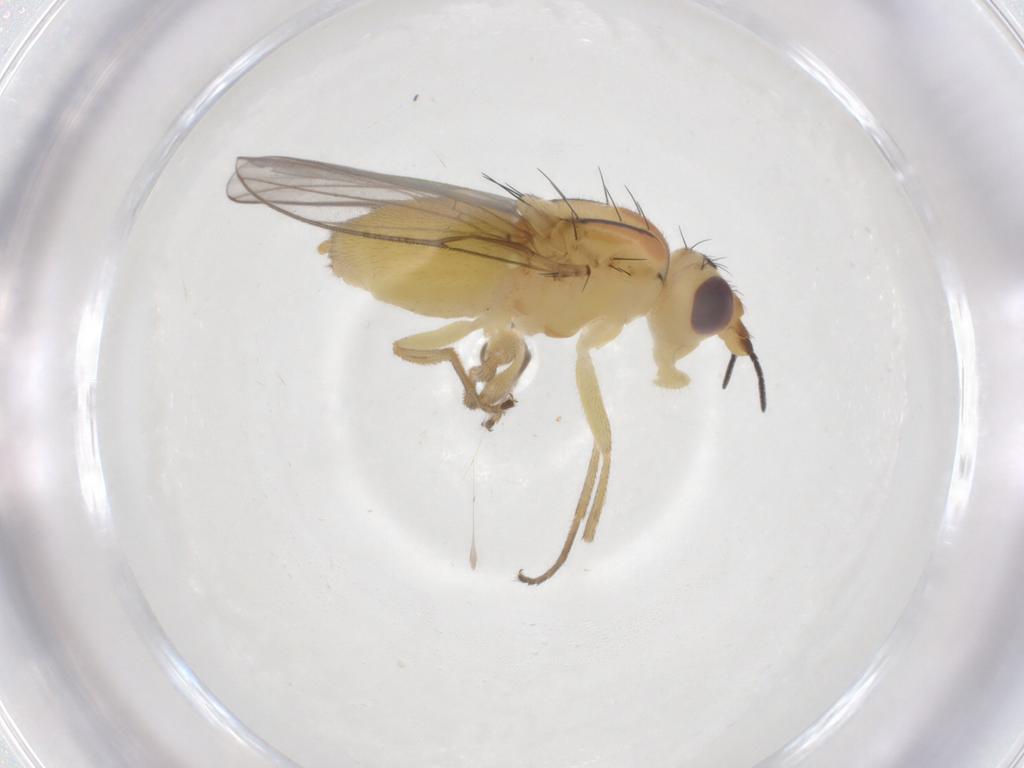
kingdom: Animalia
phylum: Arthropoda
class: Insecta
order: Diptera
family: Chloropidae
